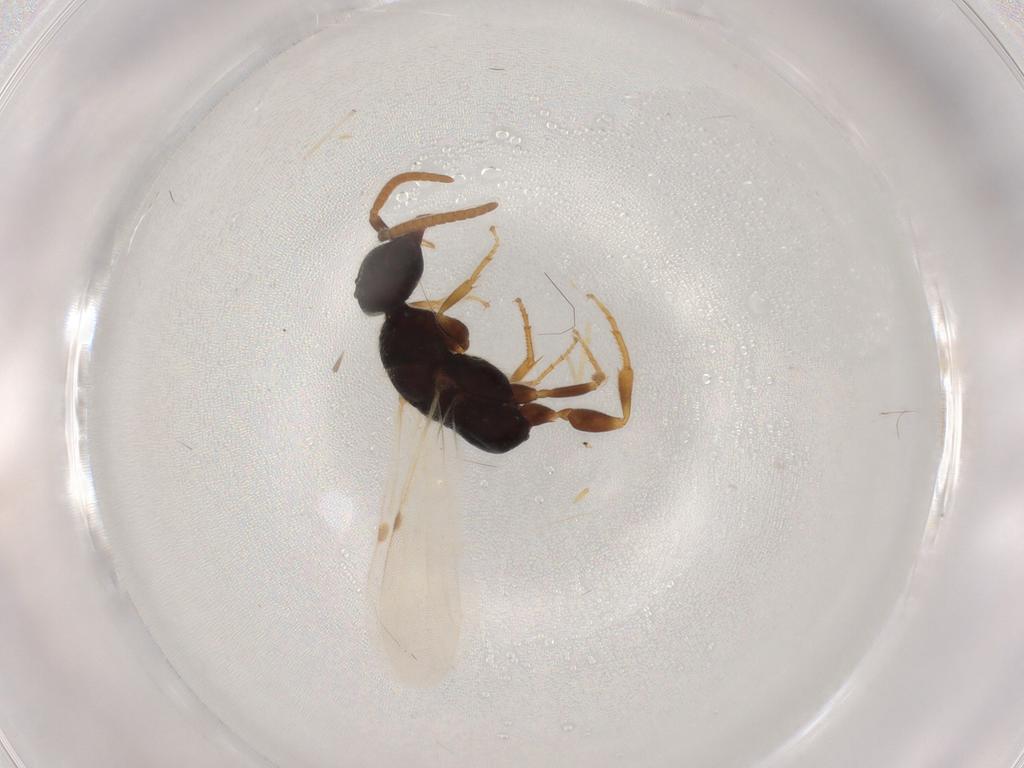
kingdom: Animalia
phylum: Arthropoda
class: Insecta
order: Hymenoptera
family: Bethylidae
